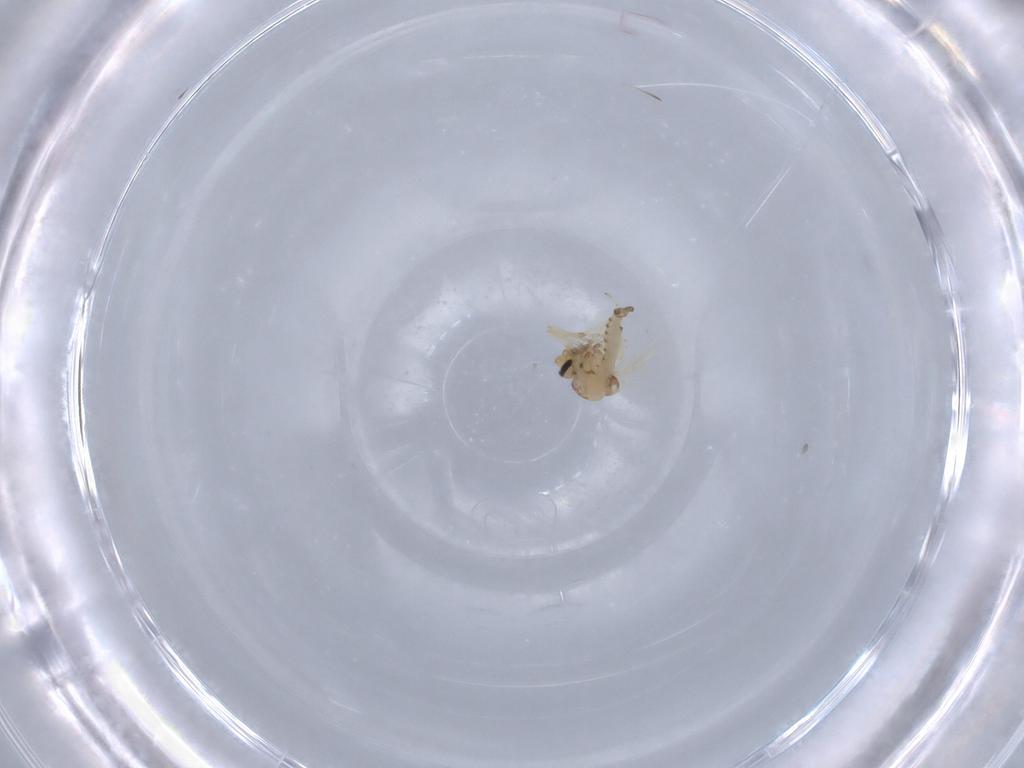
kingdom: Animalia
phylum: Arthropoda
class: Insecta
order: Diptera
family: Ceratopogonidae
